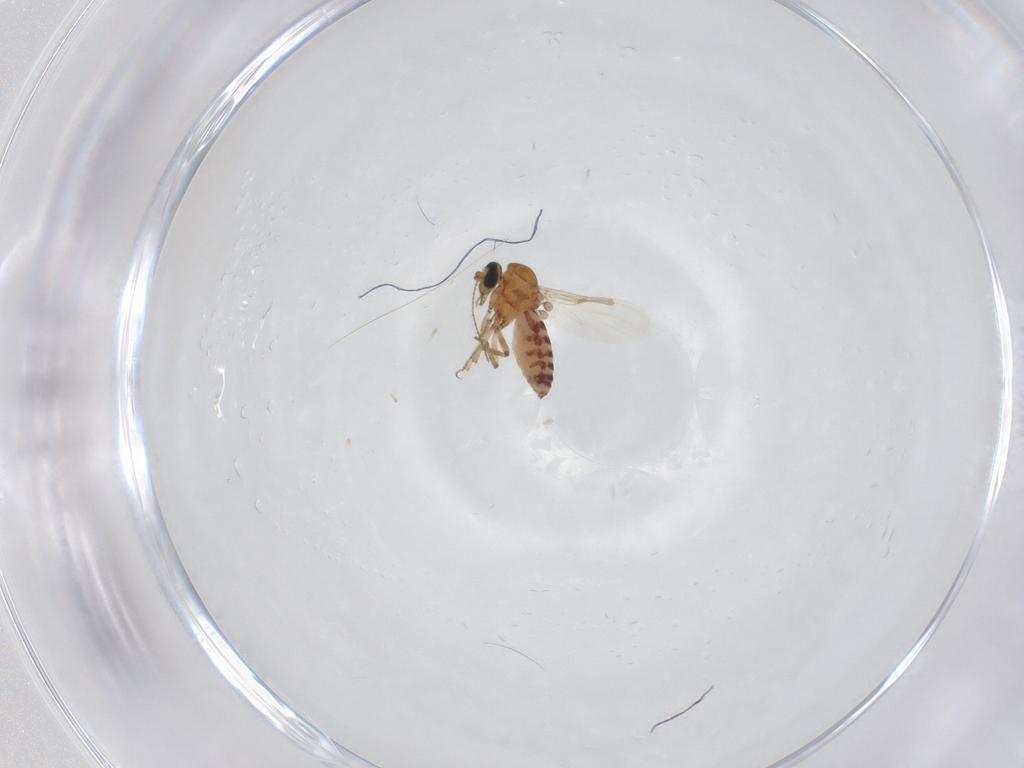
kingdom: Animalia
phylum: Arthropoda
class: Insecta
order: Diptera
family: Ceratopogonidae
